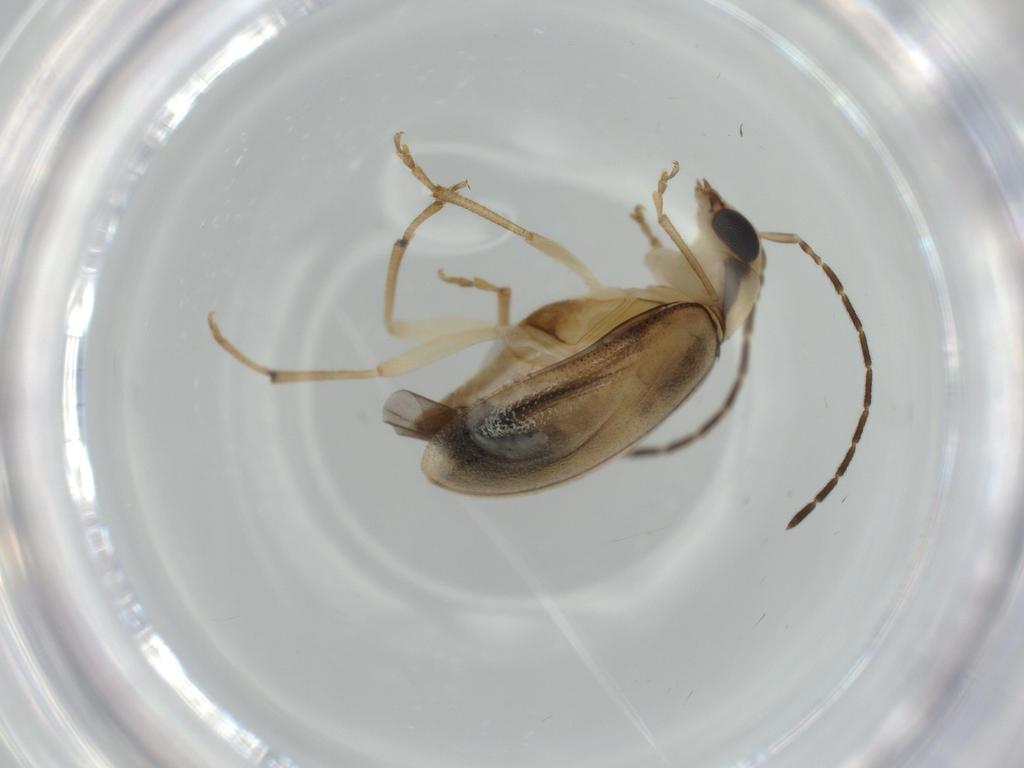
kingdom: Animalia
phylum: Arthropoda
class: Insecta
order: Coleoptera
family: Chrysomelidae
